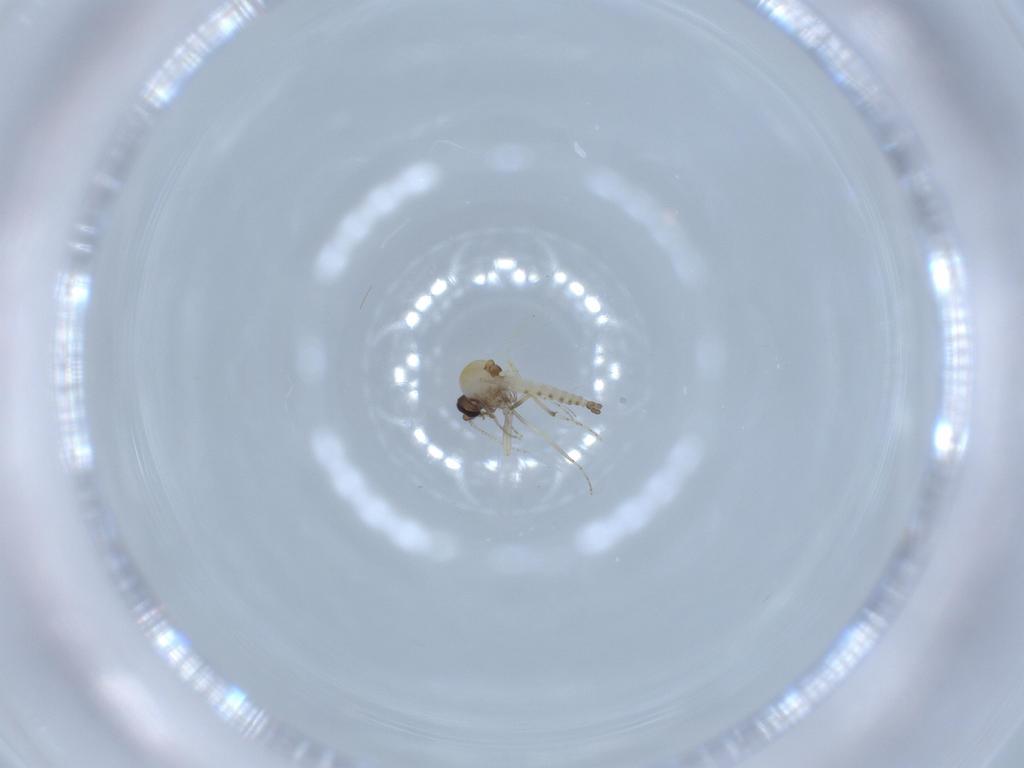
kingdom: Animalia
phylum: Arthropoda
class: Insecta
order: Diptera
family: Ceratopogonidae
